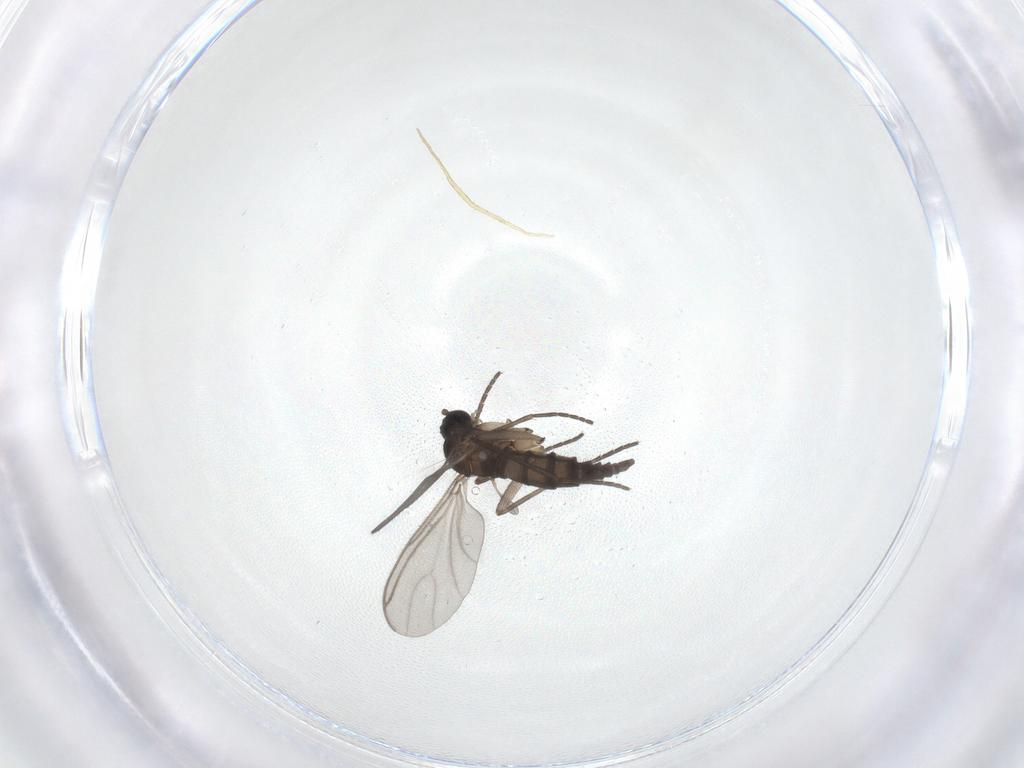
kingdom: Animalia
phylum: Arthropoda
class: Insecta
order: Diptera
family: Sciaridae
